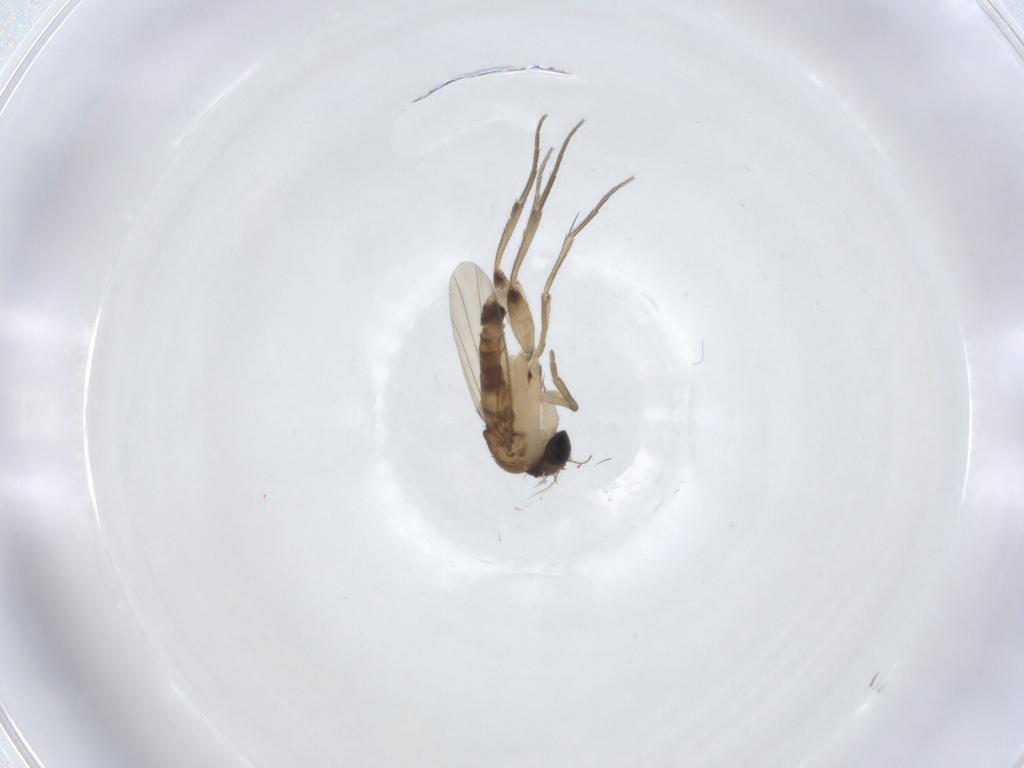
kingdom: Animalia
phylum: Arthropoda
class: Insecta
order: Diptera
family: Phoridae
